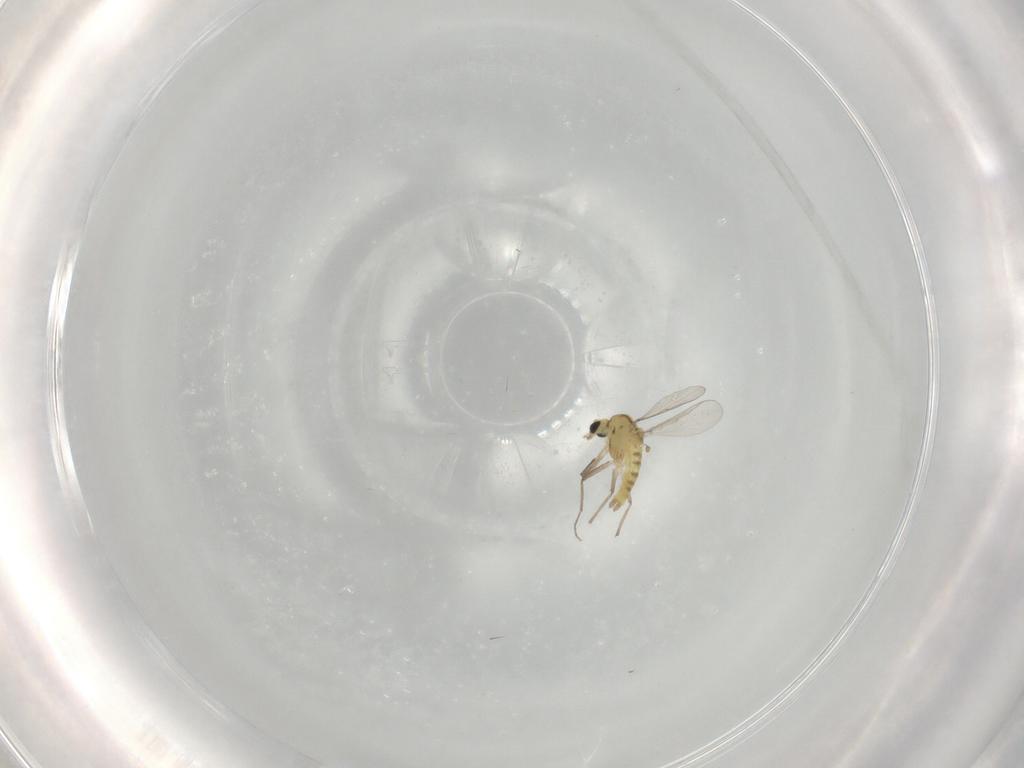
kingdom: Animalia
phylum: Arthropoda
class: Insecta
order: Diptera
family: Chironomidae
